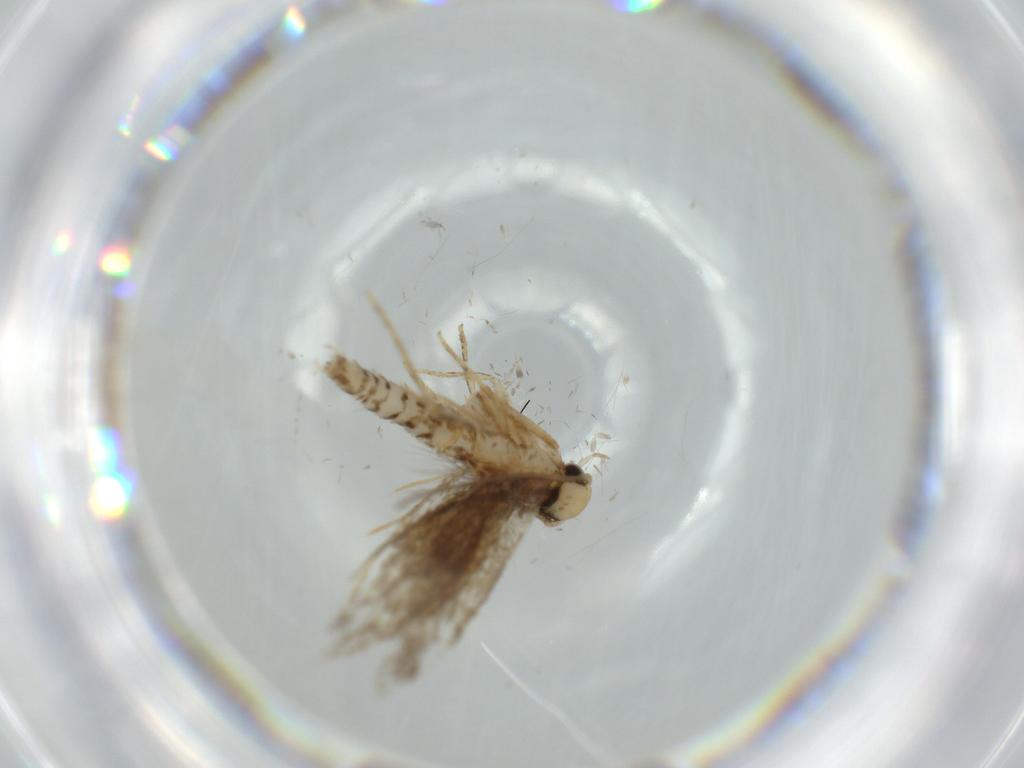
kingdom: Animalia
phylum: Arthropoda
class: Insecta
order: Lepidoptera
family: Tineidae
